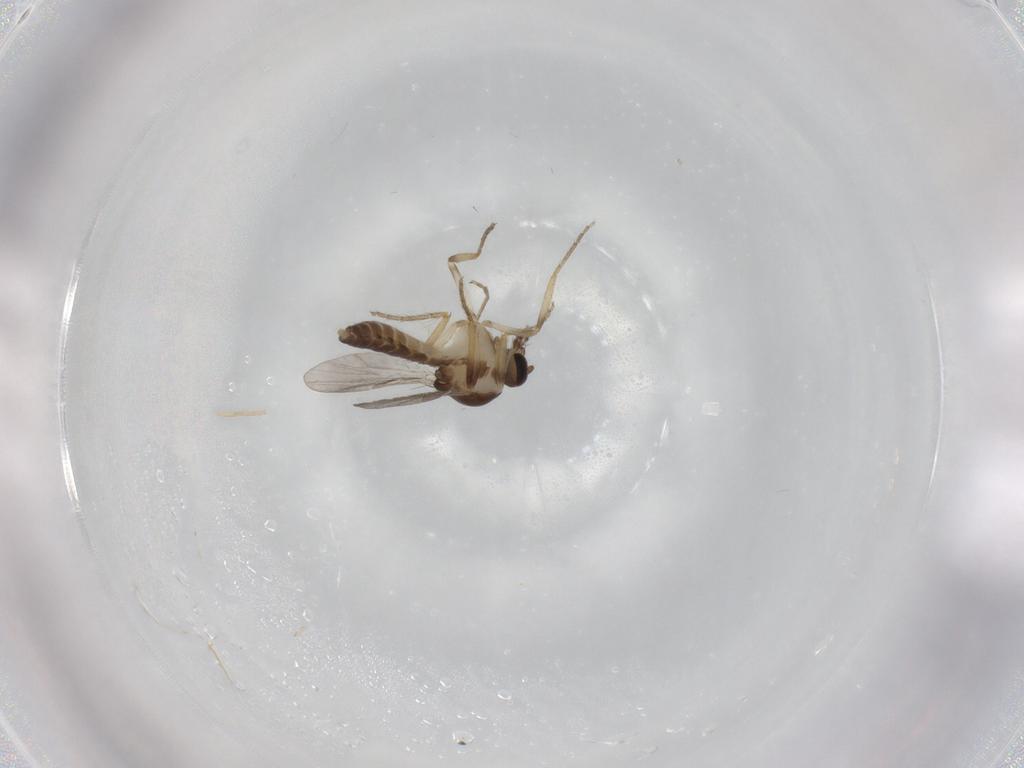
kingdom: Animalia
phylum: Arthropoda
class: Insecta
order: Diptera
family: Ceratopogonidae
